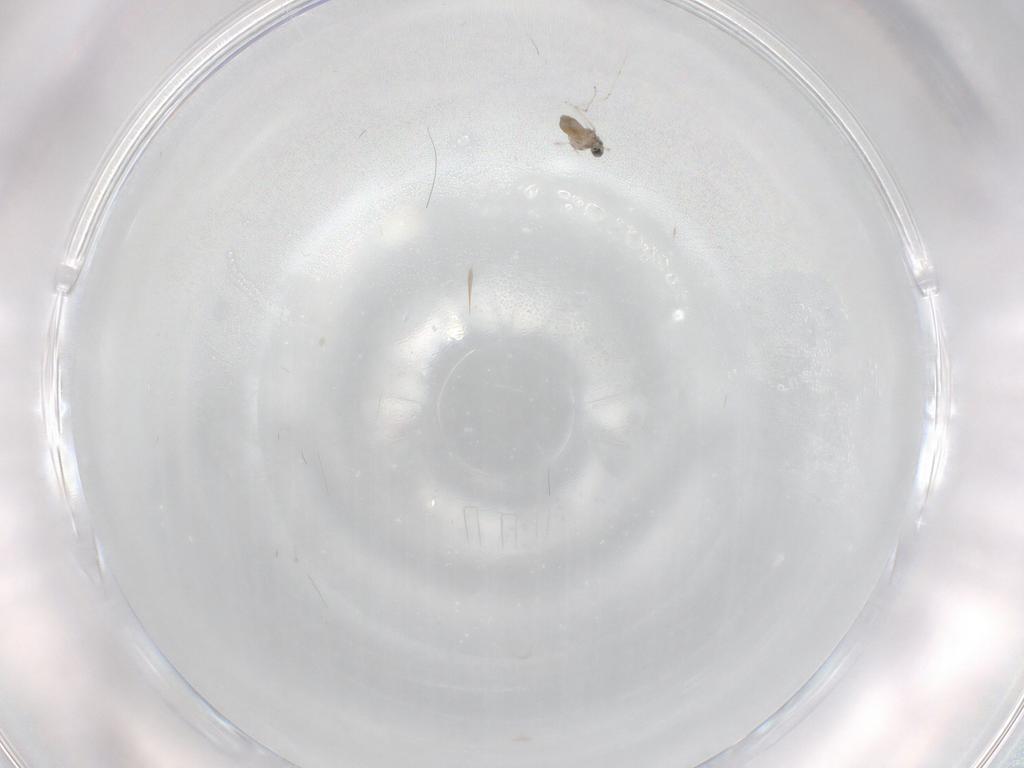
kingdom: Animalia
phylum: Arthropoda
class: Insecta
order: Diptera
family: Cecidomyiidae
